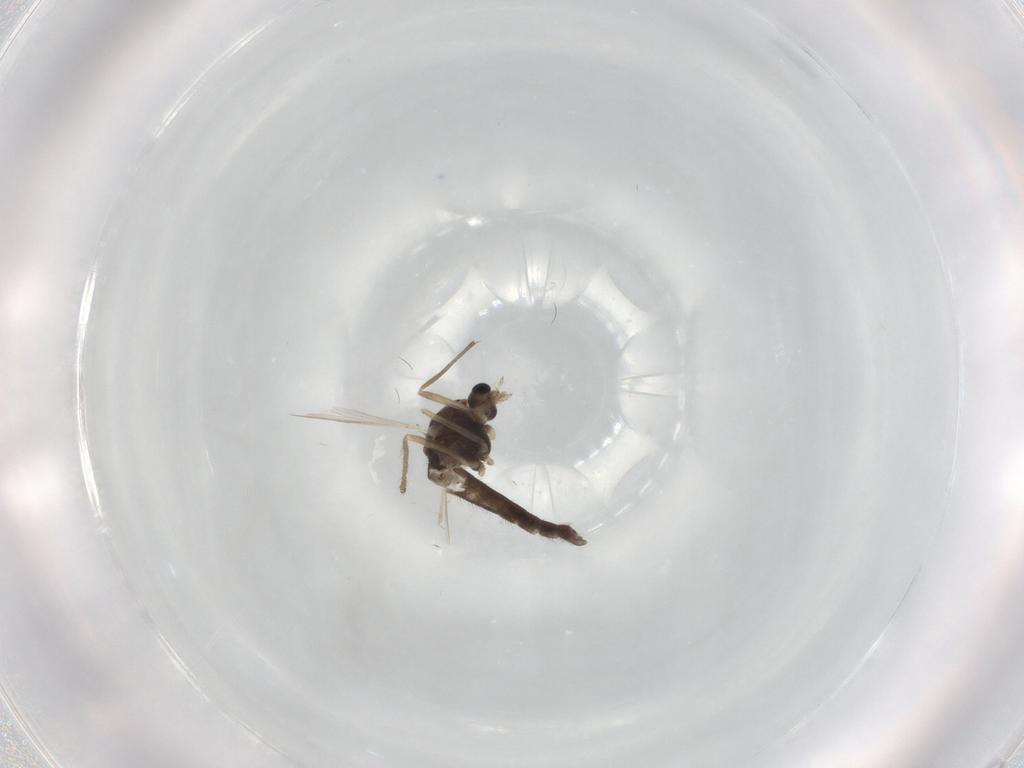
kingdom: Animalia
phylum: Arthropoda
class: Insecta
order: Diptera
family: Chironomidae
